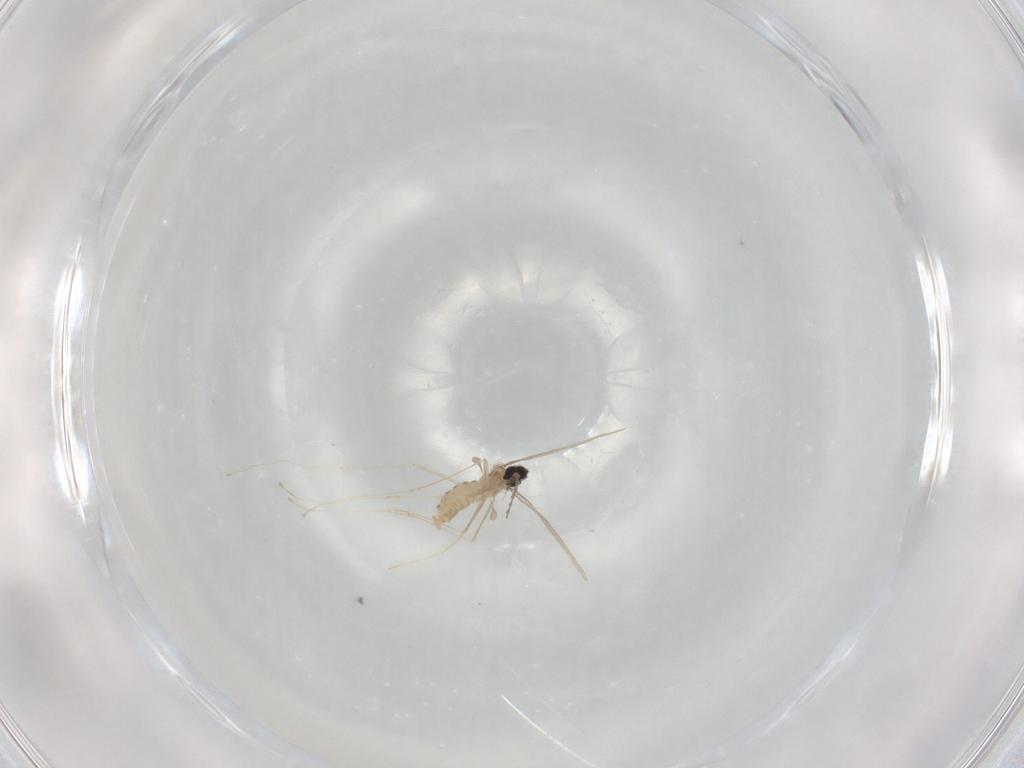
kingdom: Animalia
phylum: Arthropoda
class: Insecta
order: Diptera
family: Cecidomyiidae
